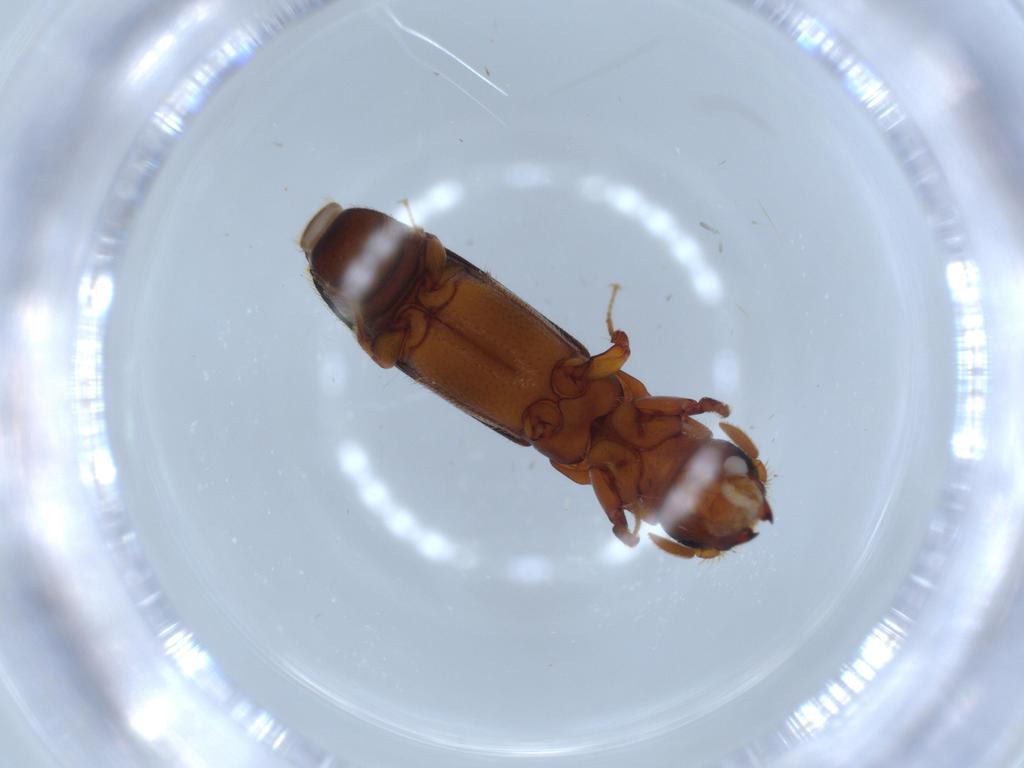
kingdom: Animalia
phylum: Arthropoda
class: Insecta
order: Coleoptera
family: Curculionidae
